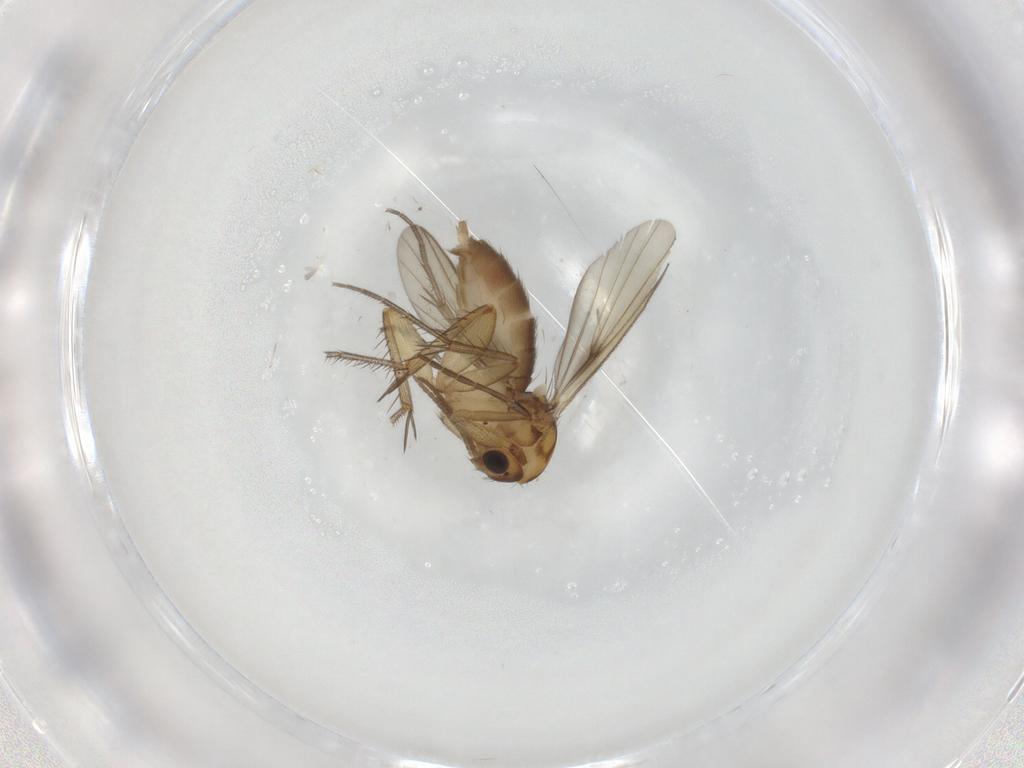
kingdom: Animalia
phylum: Arthropoda
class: Insecta
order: Diptera
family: Mycetophilidae
